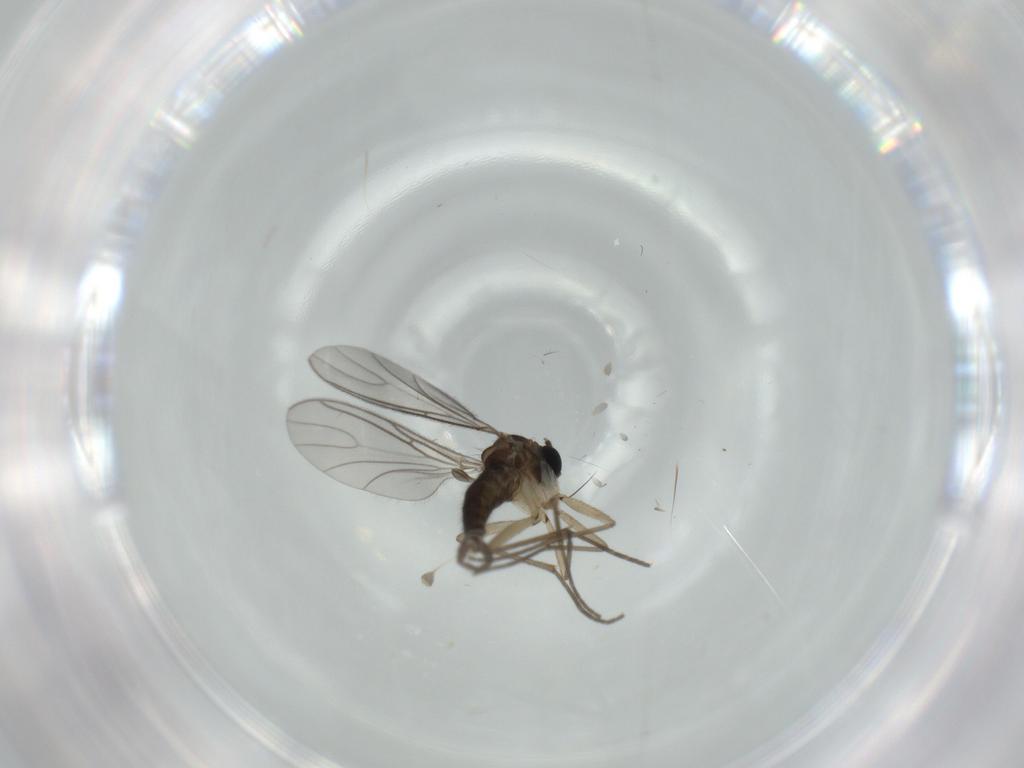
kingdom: Animalia
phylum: Arthropoda
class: Insecta
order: Diptera
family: Sciaridae
